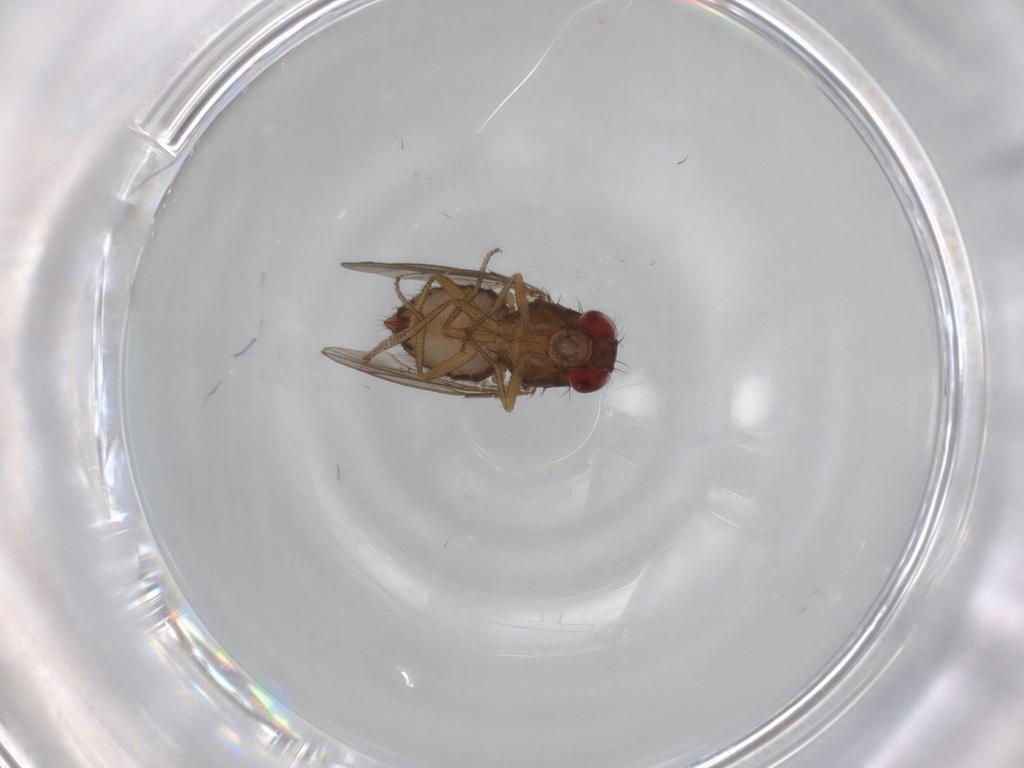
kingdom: Animalia
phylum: Arthropoda
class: Insecta
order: Diptera
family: Drosophilidae
